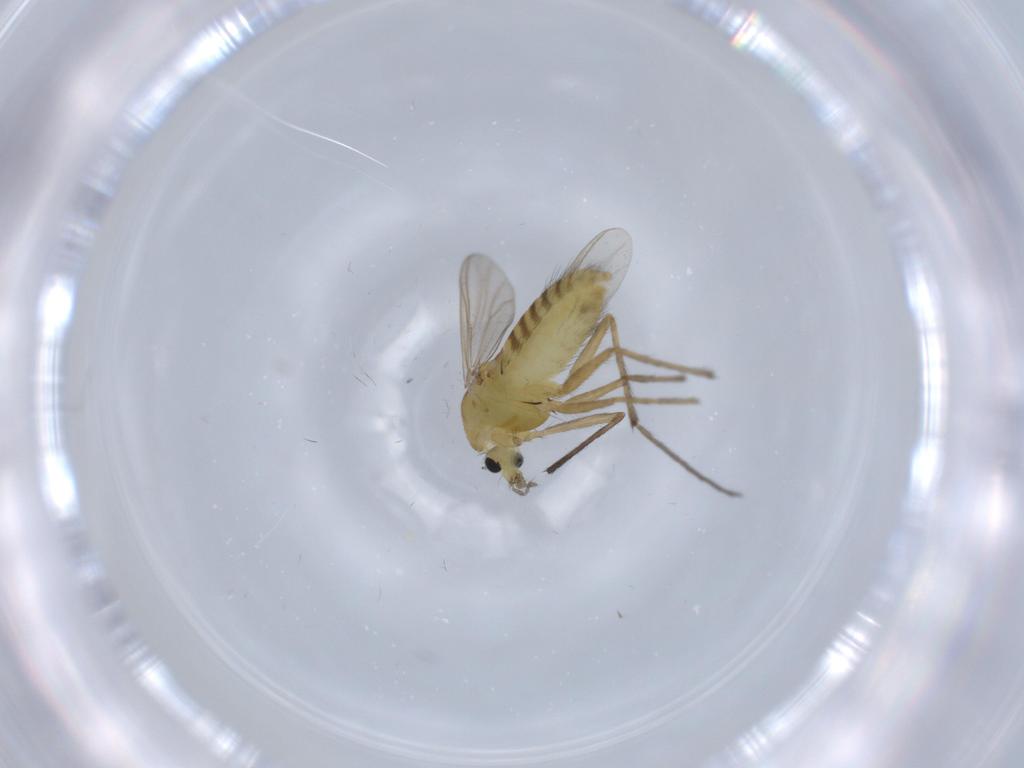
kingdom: Animalia
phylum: Arthropoda
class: Insecta
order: Diptera
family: Chironomidae
